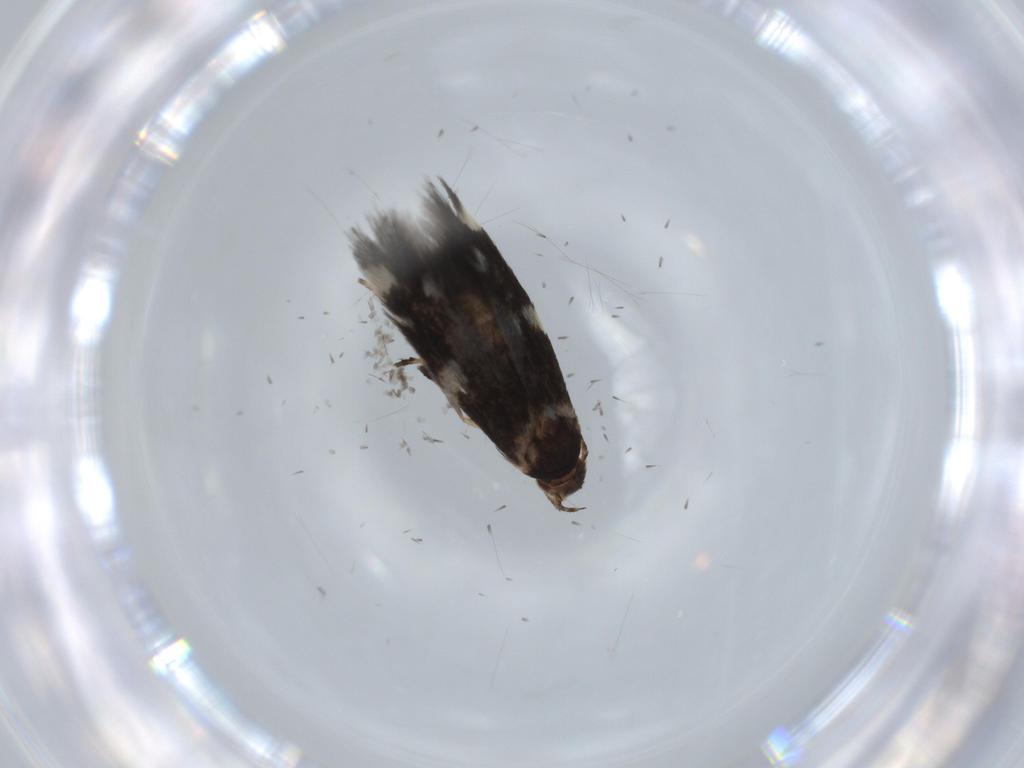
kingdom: Animalia
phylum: Arthropoda
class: Insecta
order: Lepidoptera
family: Cosmopterigidae
